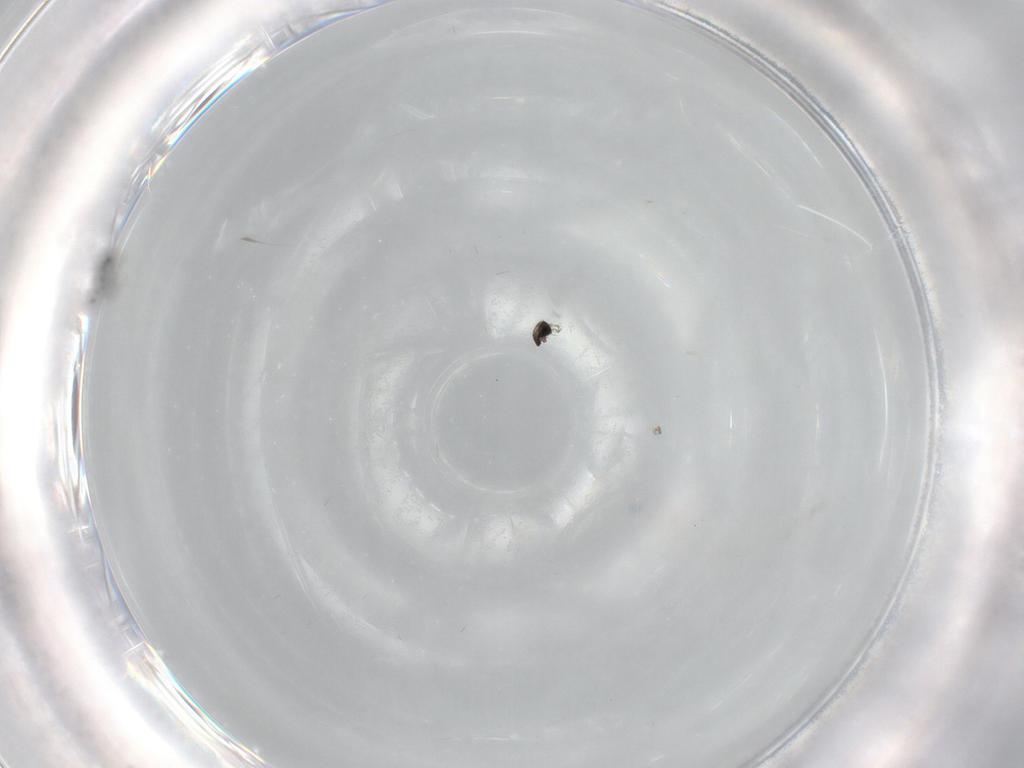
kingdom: Animalia
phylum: Arthropoda
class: Insecta
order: Diptera
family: Cecidomyiidae
